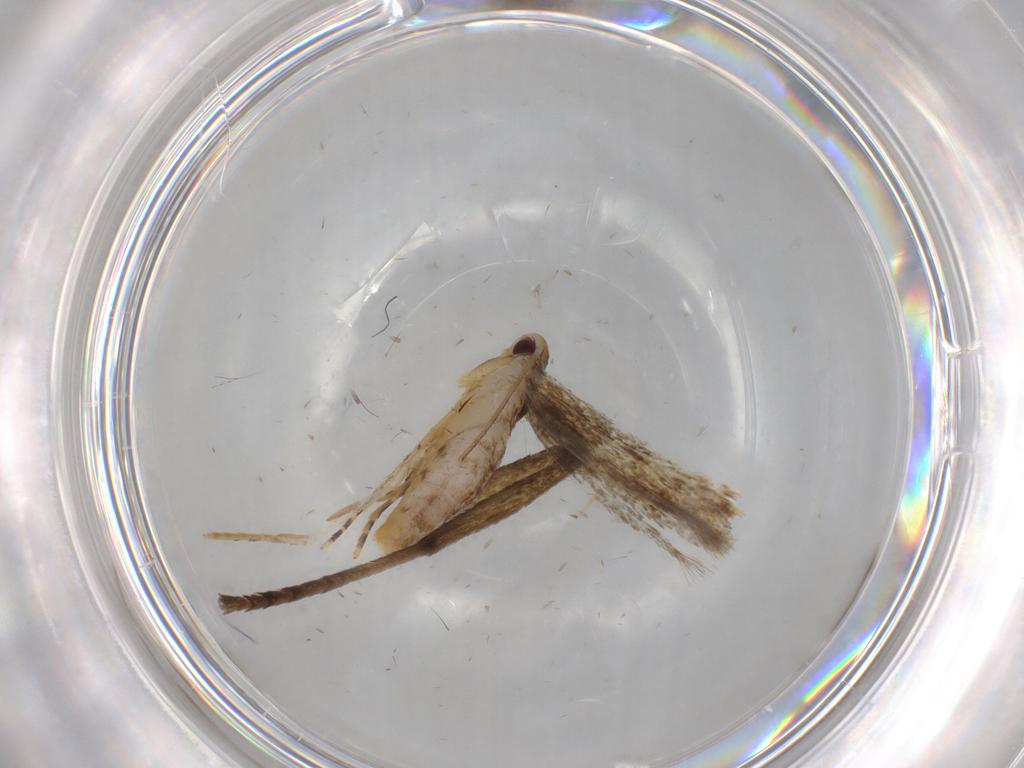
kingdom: Animalia
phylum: Arthropoda
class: Insecta
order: Lepidoptera
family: Momphidae
